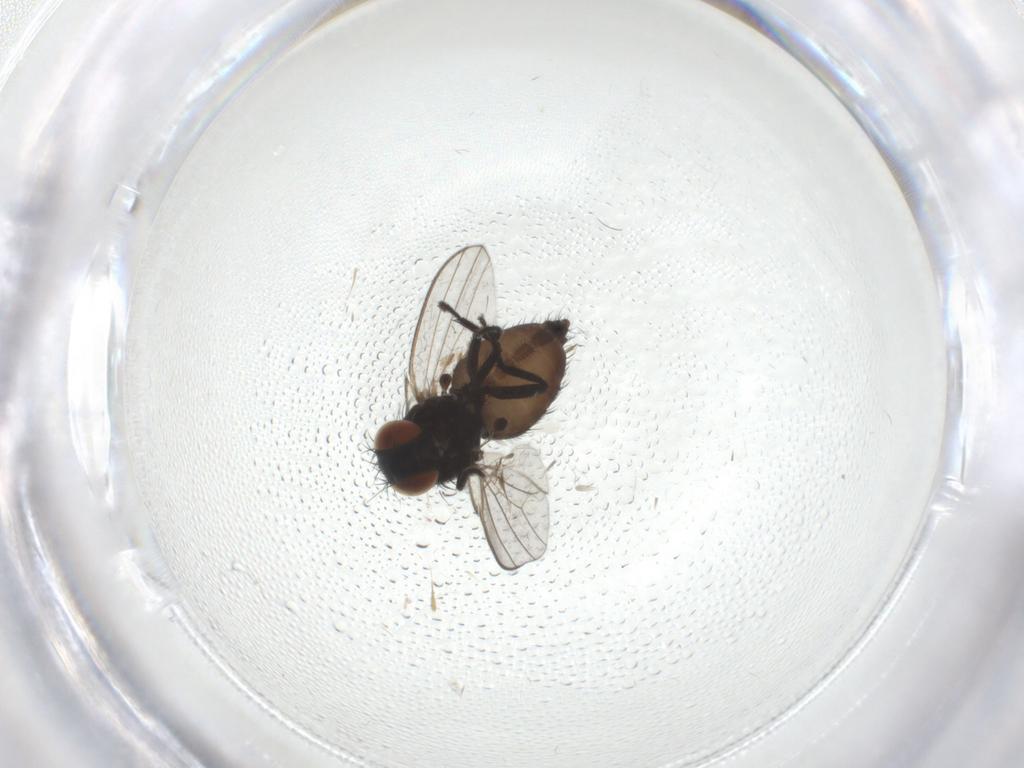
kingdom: Animalia
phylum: Arthropoda
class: Insecta
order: Diptera
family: Milichiidae
